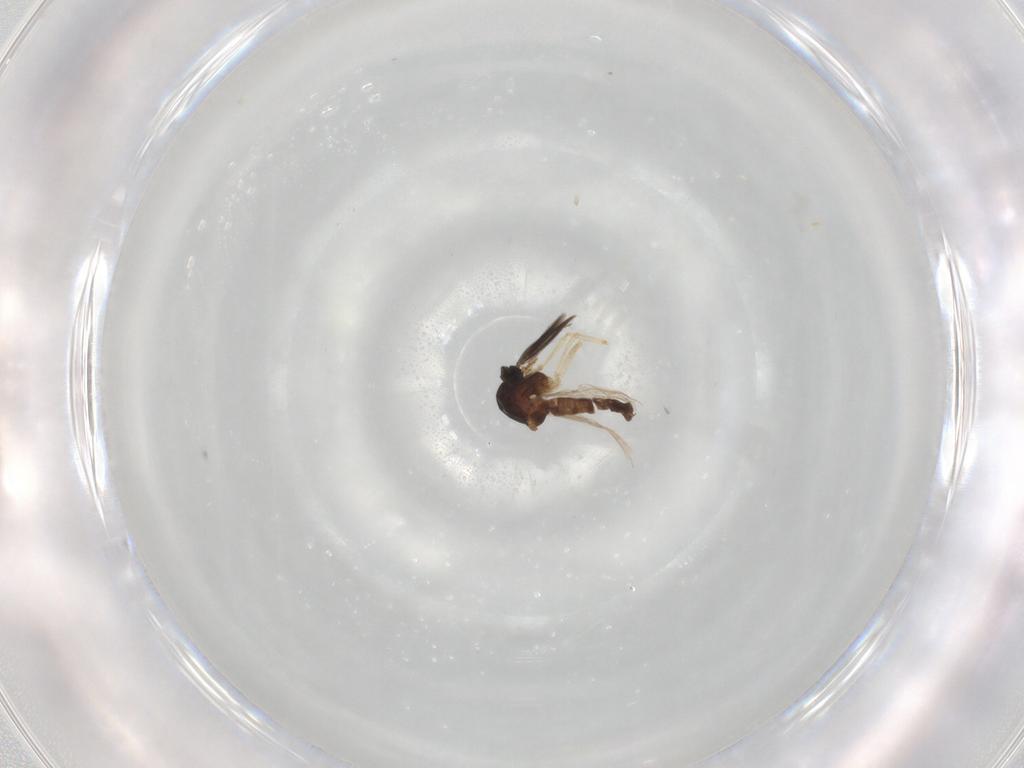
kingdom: Animalia
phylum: Arthropoda
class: Insecta
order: Diptera
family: Ceratopogonidae
